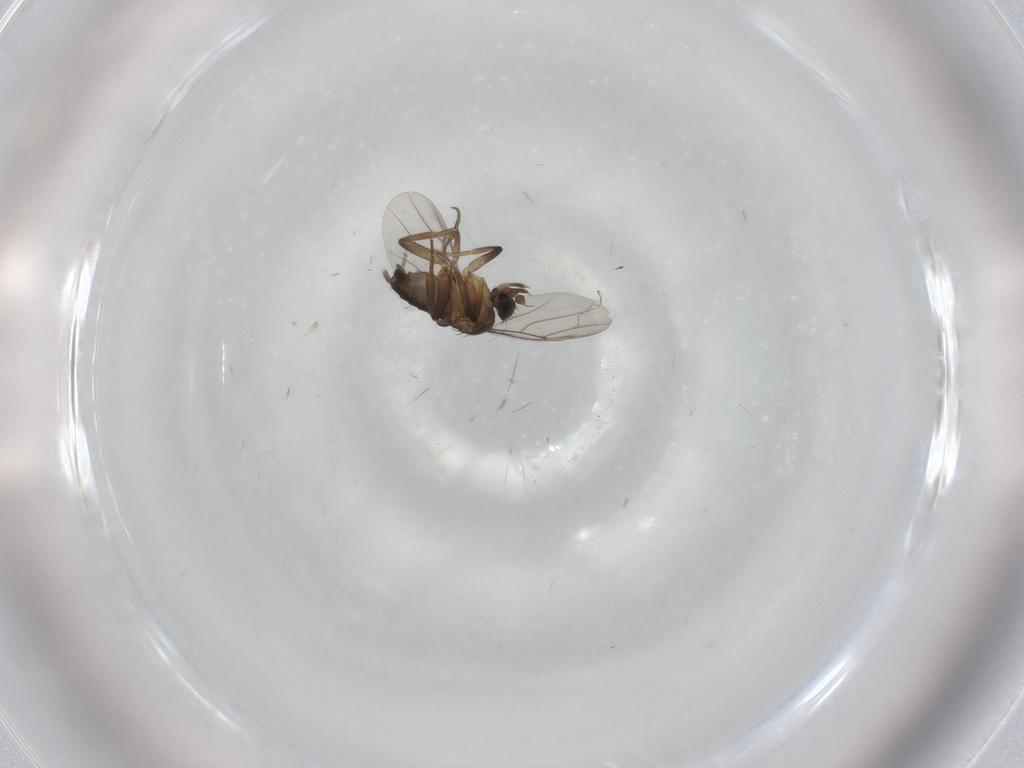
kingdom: Animalia
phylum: Arthropoda
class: Insecta
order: Diptera
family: Phoridae
